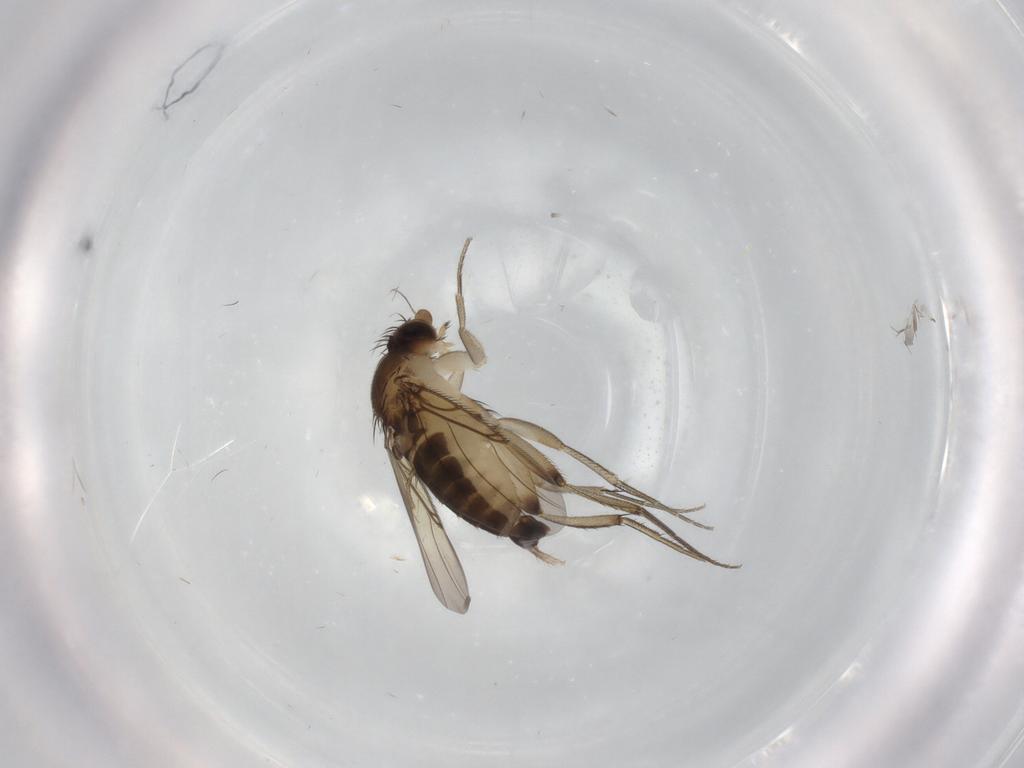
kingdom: Animalia
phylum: Arthropoda
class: Insecta
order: Diptera
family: Phoridae
